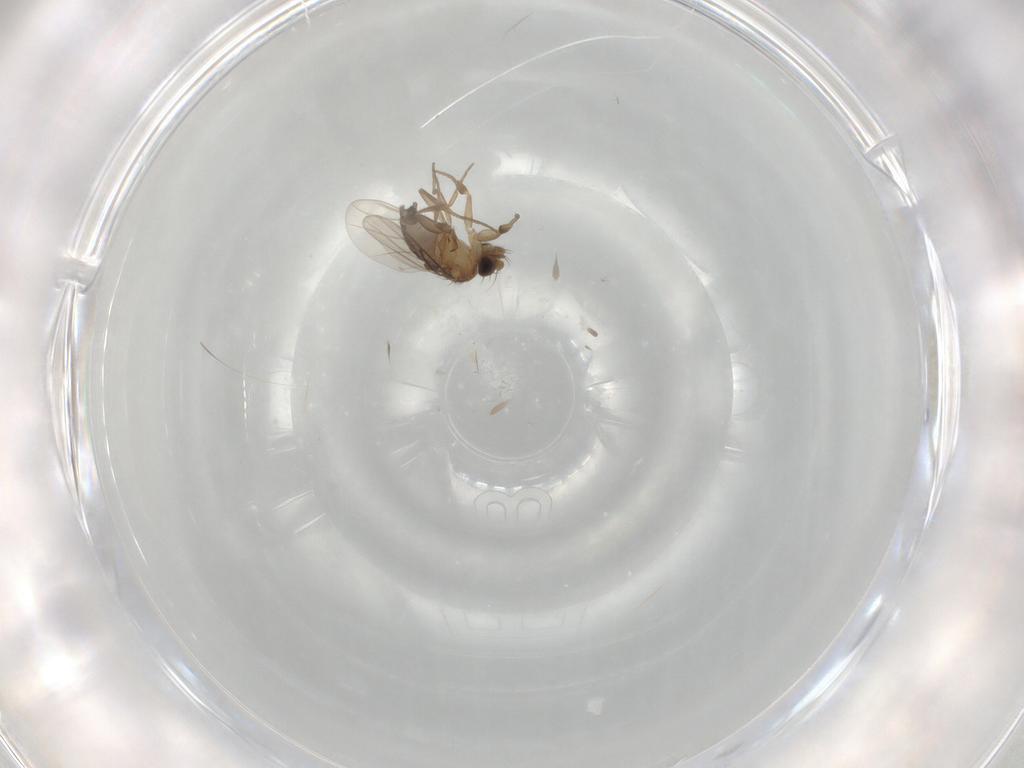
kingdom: Animalia
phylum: Arthropoda
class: Insecta
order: Diptera
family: Phoridae
